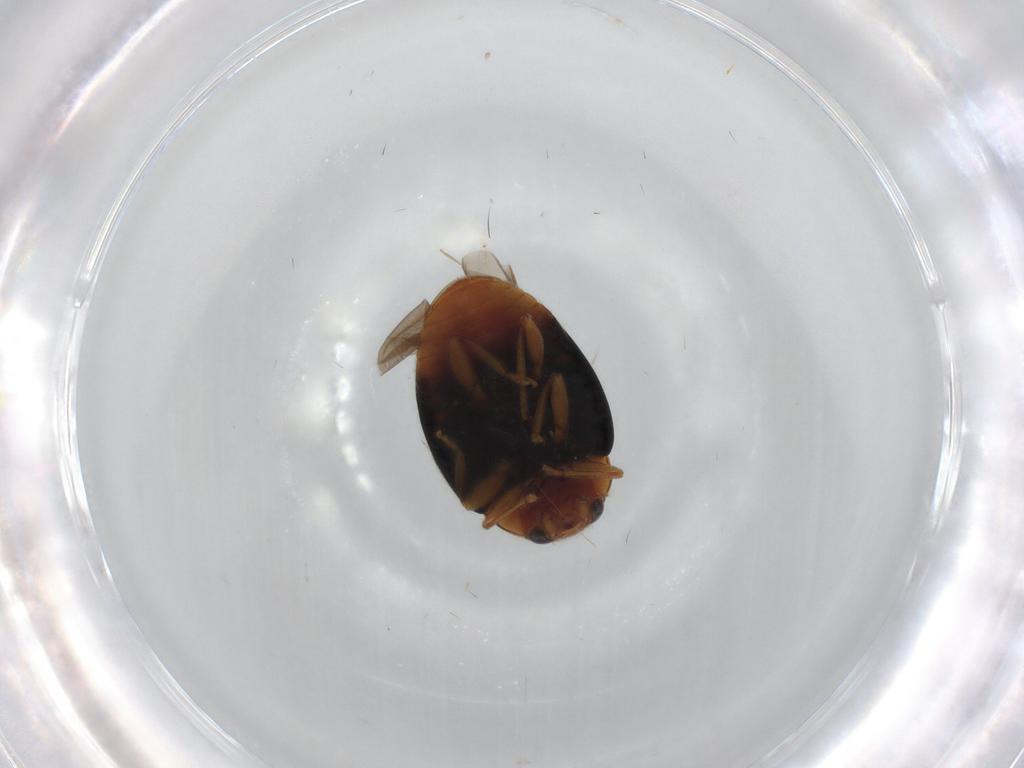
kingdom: Animalia
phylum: Arthropoda
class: Insecta
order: Coleoptera
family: Coccinellidae
